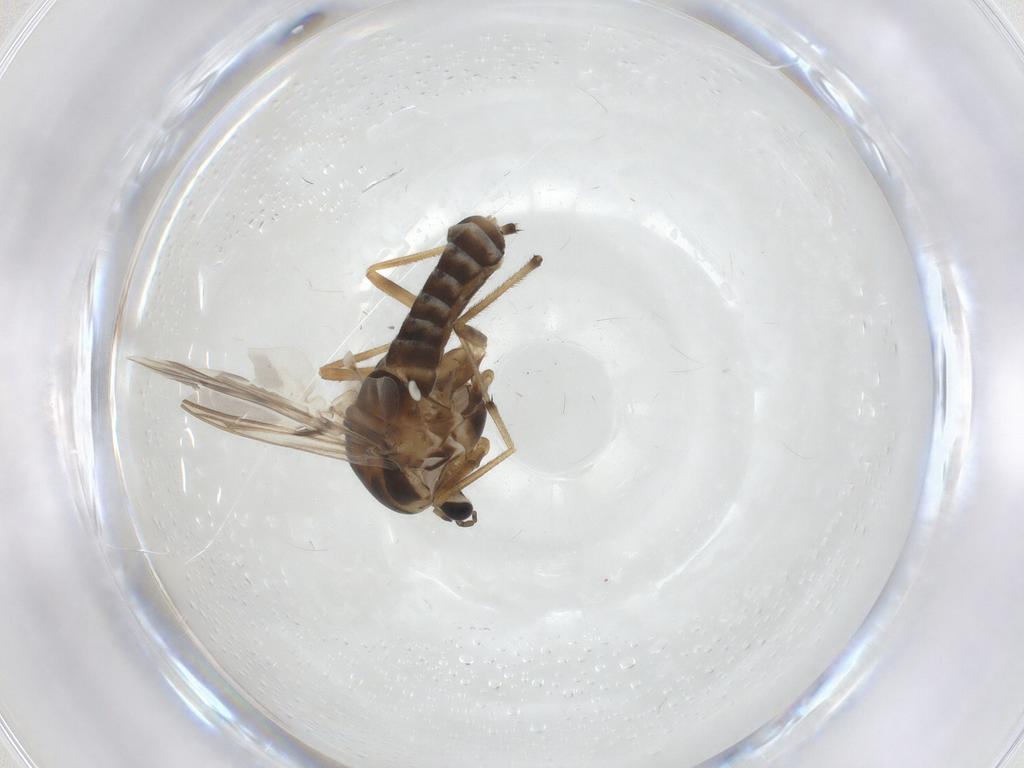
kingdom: Animalia
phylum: Arthropoda
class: Insecta
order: Diptera
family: Chironomidae
